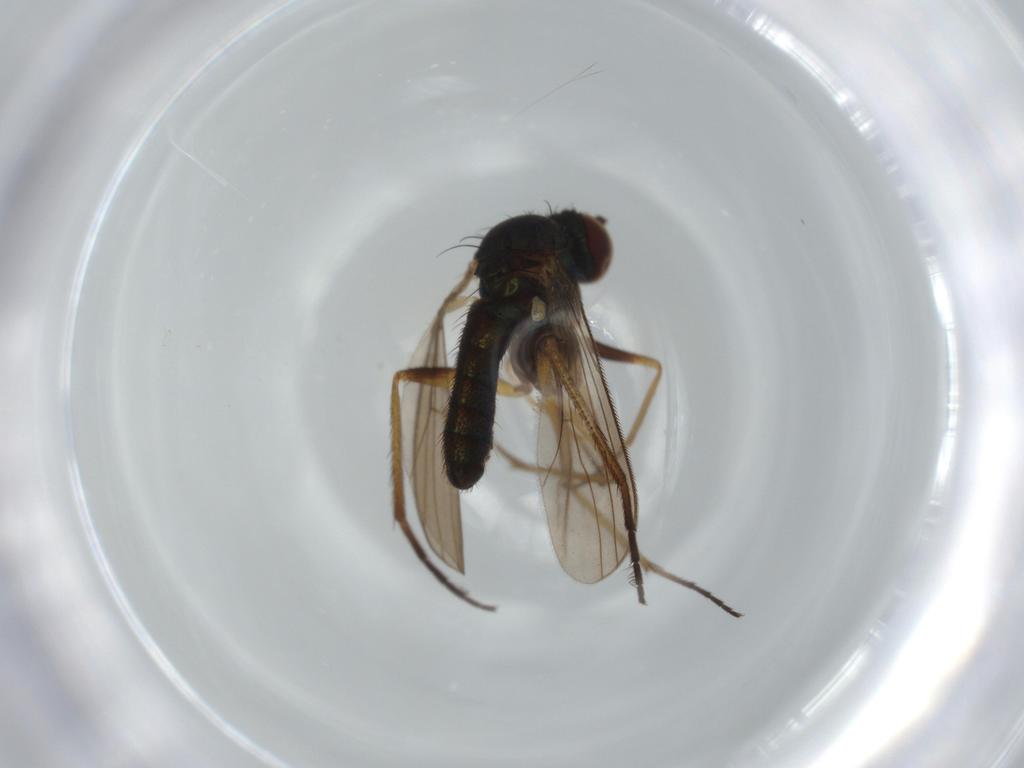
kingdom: Animalia
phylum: Arthropoda
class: Insecta
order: Diptera
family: Dolichopodidae
